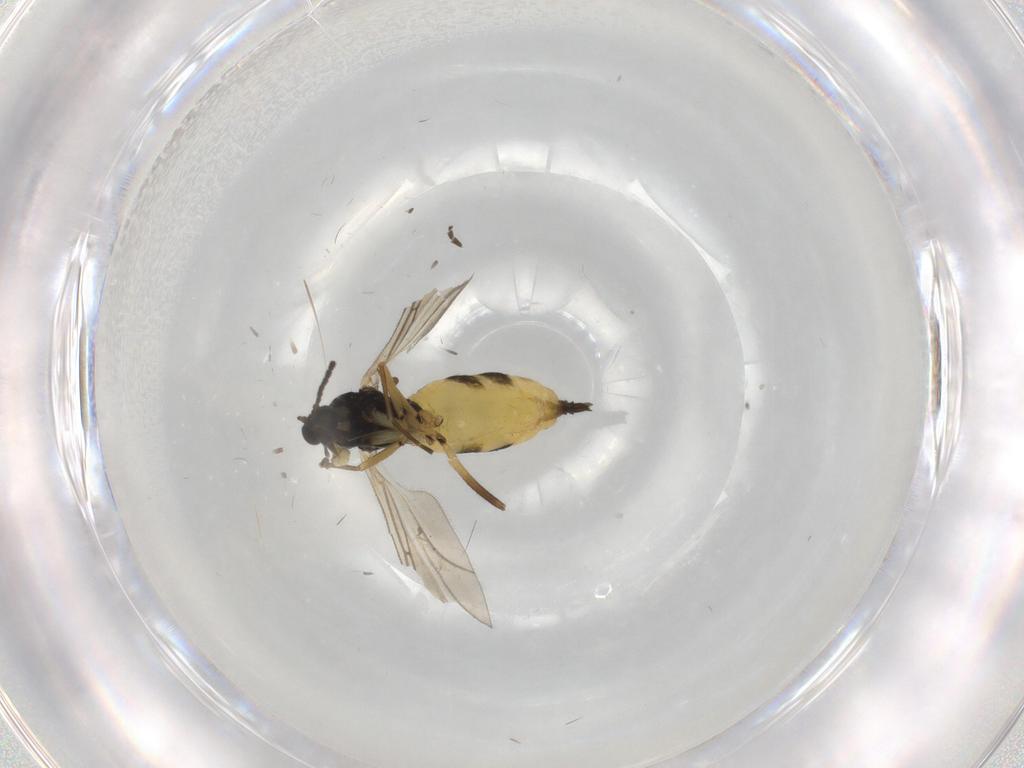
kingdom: Animalia
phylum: Arthropoda
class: Insecta
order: Diptera
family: Sciaridae
